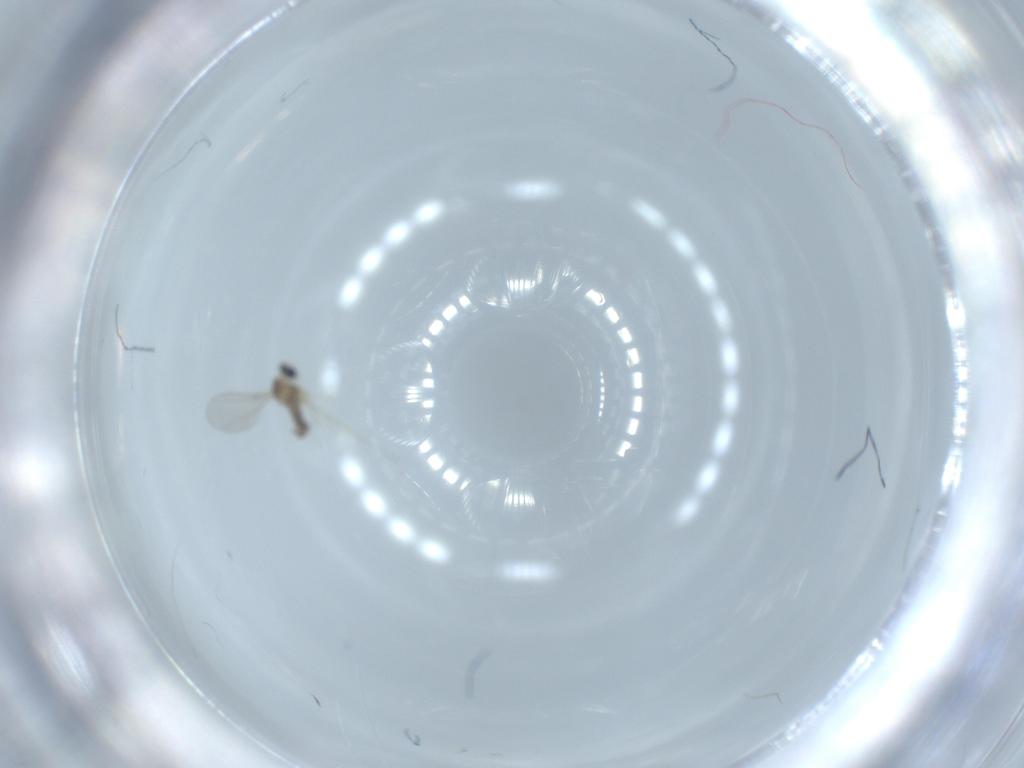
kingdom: Animalia
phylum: Arthropoda
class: Insecta
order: Diptera
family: Cecidomyiidae
